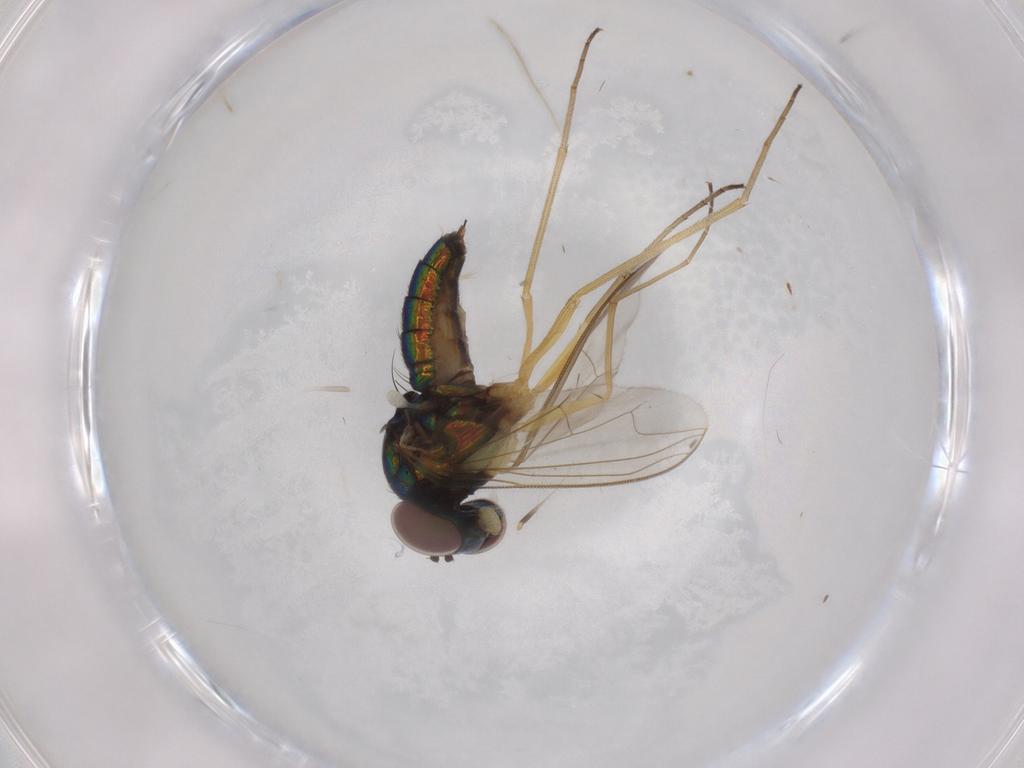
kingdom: Animalia
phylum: Arthropoda
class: Insecta
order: Diptera
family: Dolichopodidae
